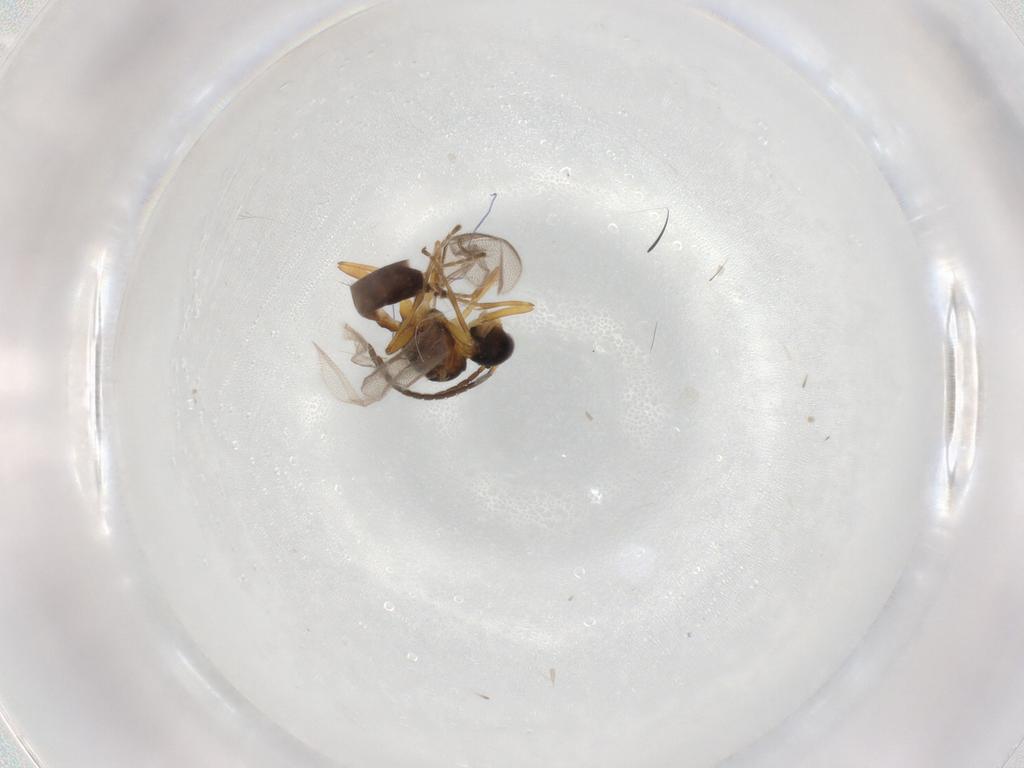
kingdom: Animalia
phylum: Arthropoda
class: Insecta
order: Hymenoptera
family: Braconidae
